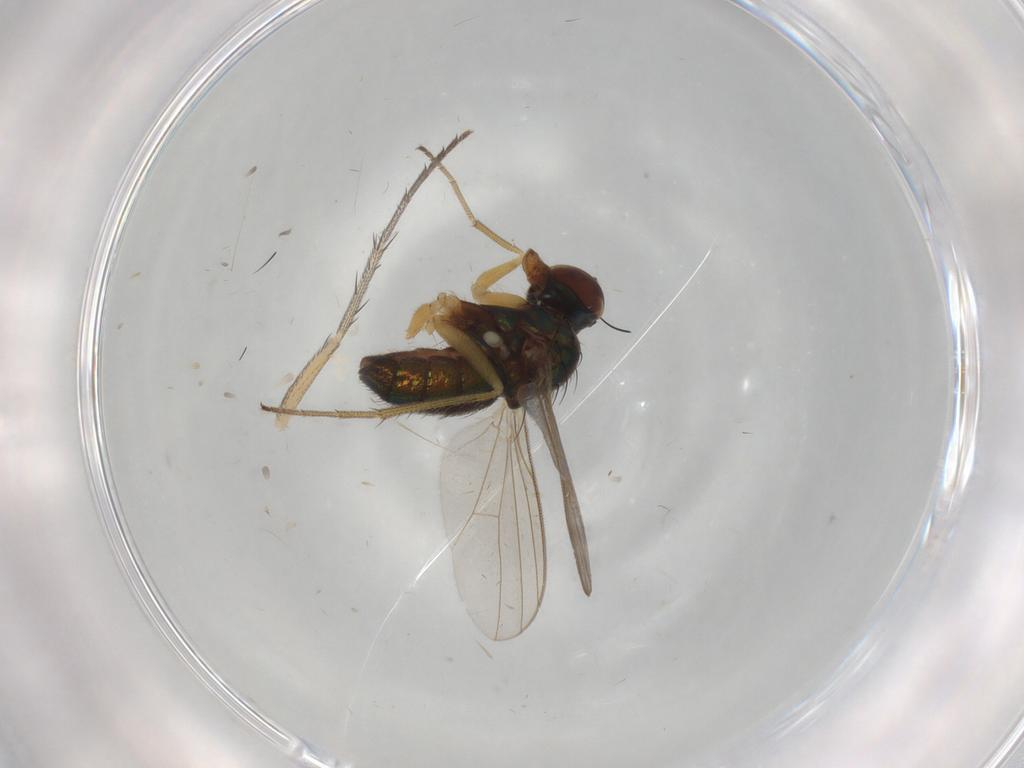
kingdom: Animalia
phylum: Arthropoda
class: Insecta
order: Diptera
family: Dolichopodidae
